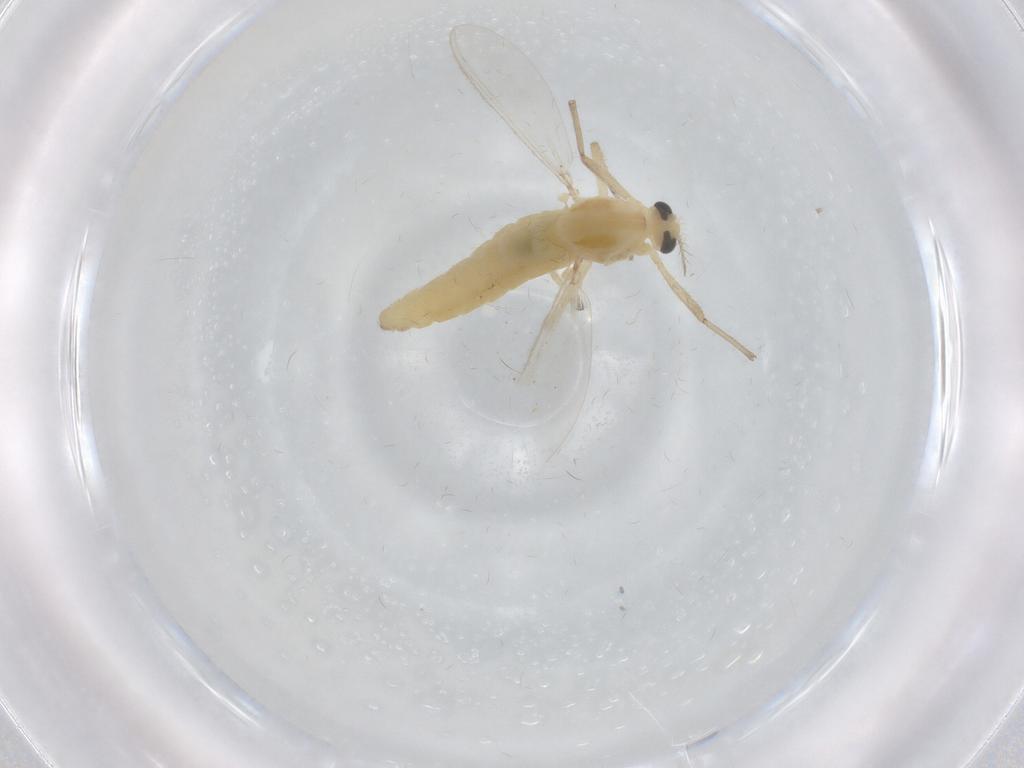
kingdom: Animalia
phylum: Arthropoda
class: Insecta
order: Diptera
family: Chironomidae
